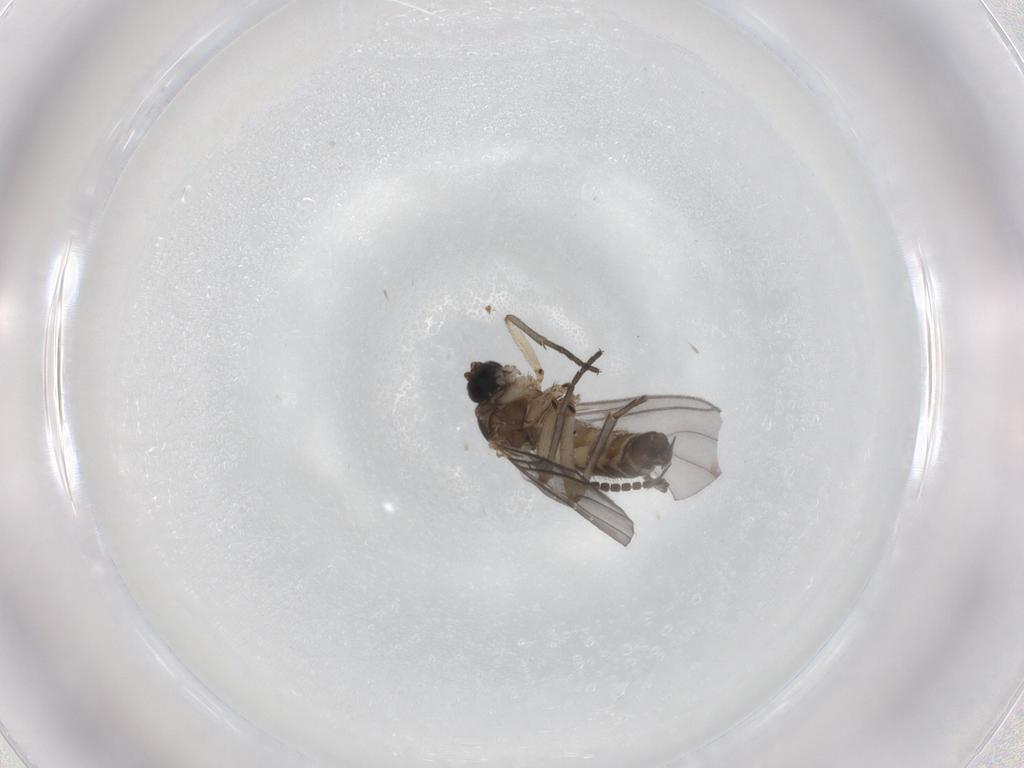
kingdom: Animalia
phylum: Arthropoda
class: Insecta
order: Diptera
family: Sciaridae
